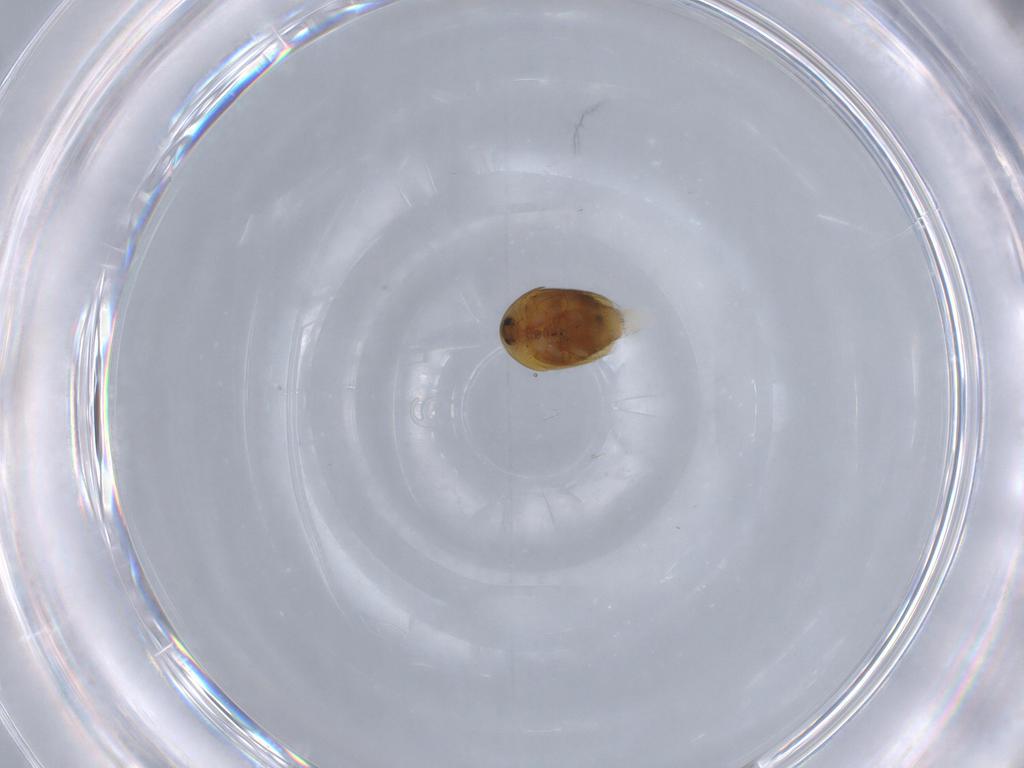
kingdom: Animalia
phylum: Arthropoda
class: Insecta
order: Coleoptera
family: Corylophidae
